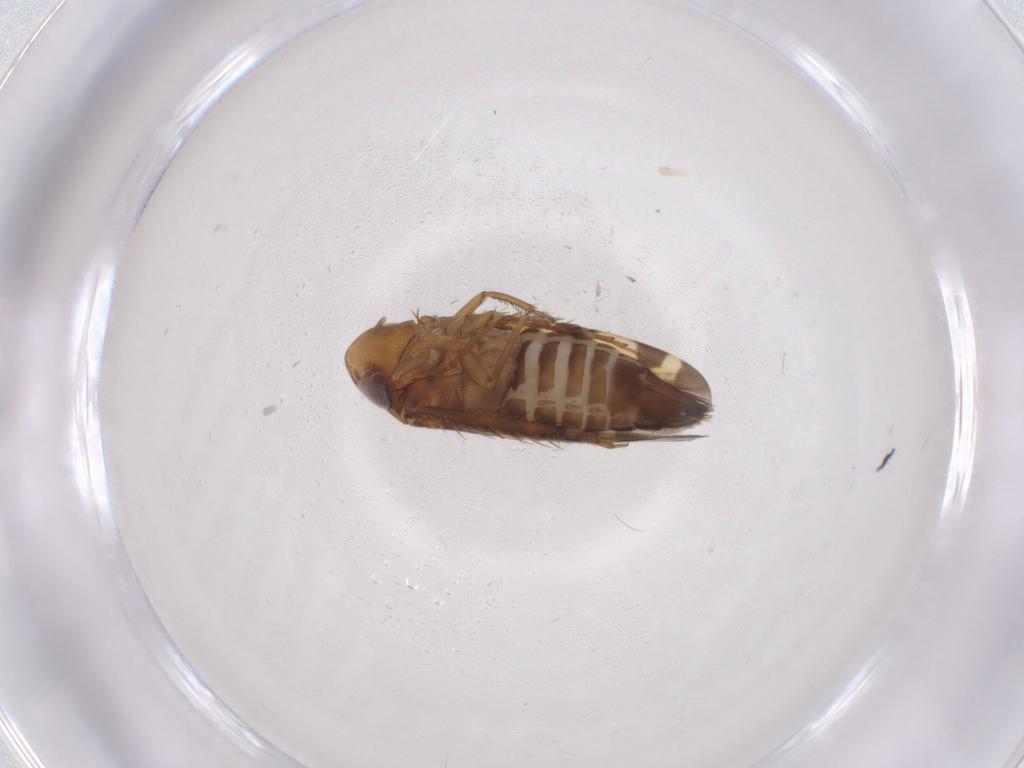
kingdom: Animalia
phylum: Arthropoda
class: Insecta
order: Hemiptera
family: Cicadellidae
